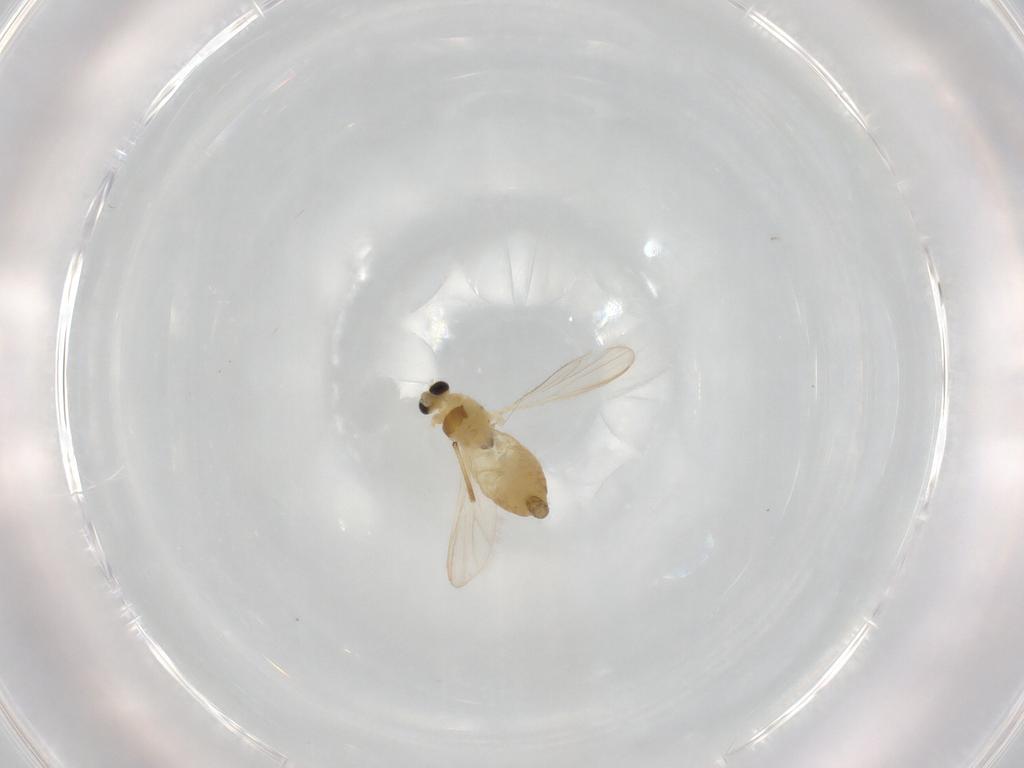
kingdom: Animalia
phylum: Arthropoda
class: Insecta
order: Diptera
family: Chironomidae
